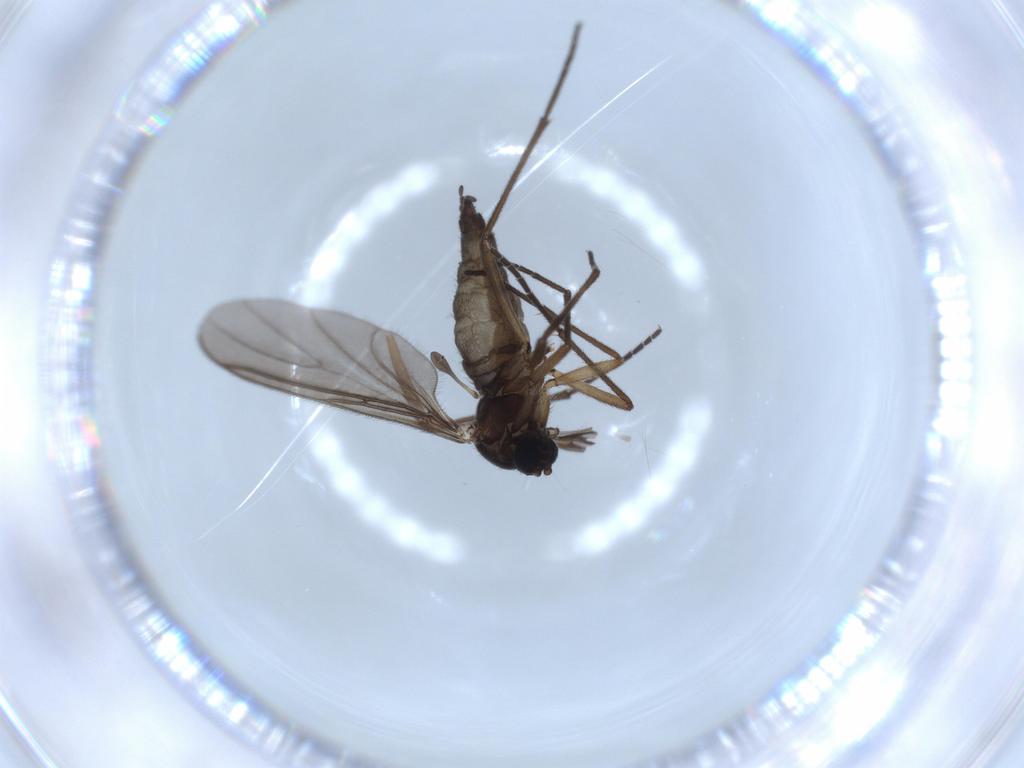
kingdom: Animalia
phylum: Arthropoda
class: Insecta
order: Diptera
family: Sciaridae
